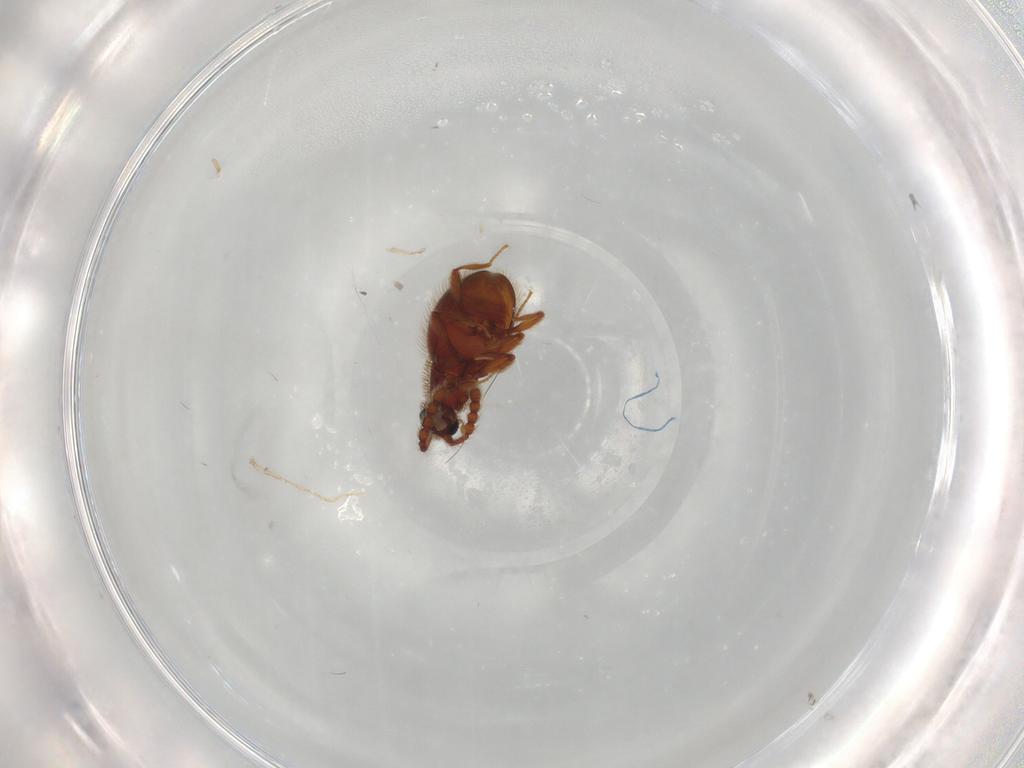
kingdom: Animalia
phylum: Arthropoda
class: Insecta
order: Coleoptera
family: Staphylinidae
